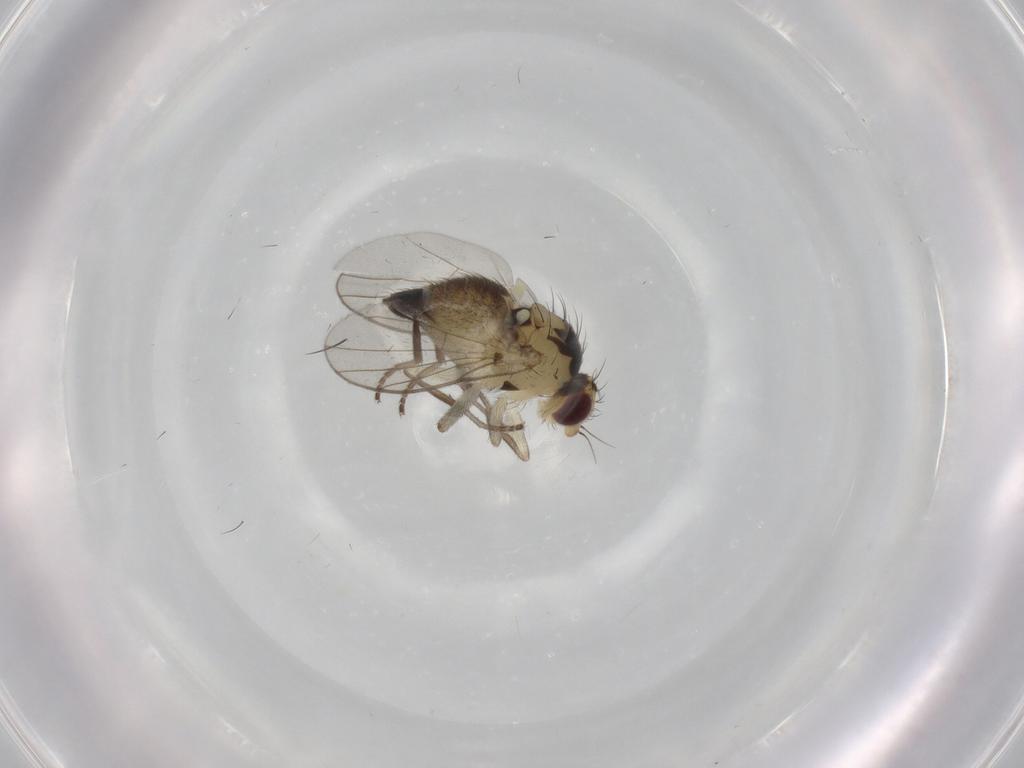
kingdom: Animalia
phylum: Arthropoda
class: Insecta
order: Diptera
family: Agromyzidae
